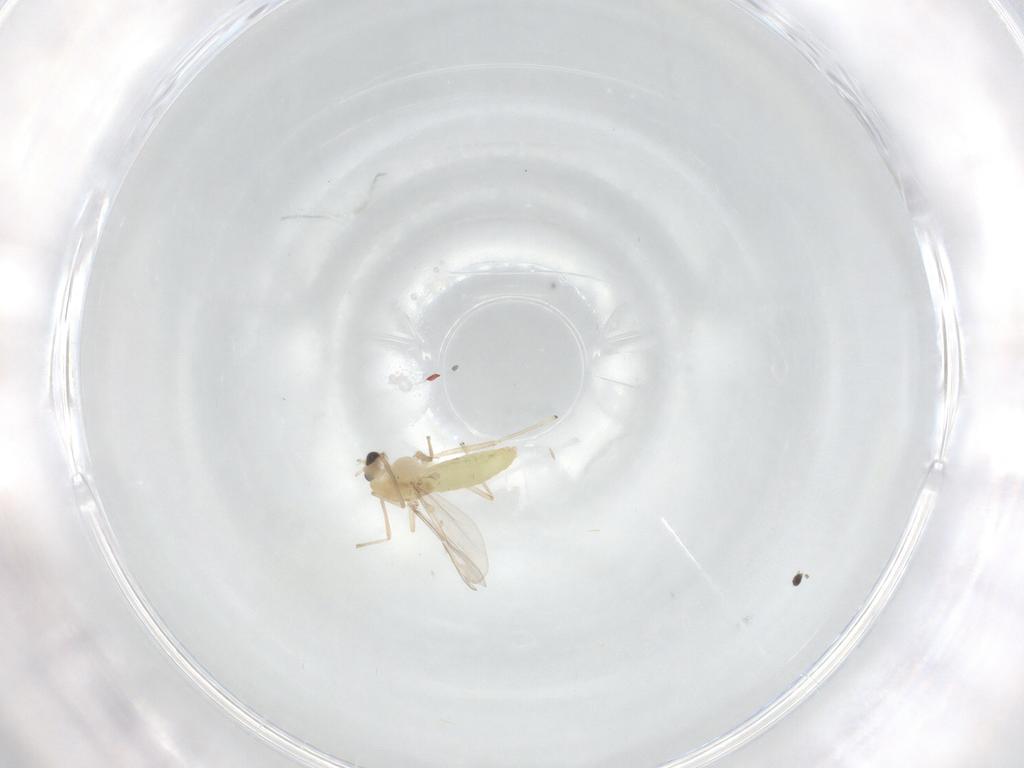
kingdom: Animalia
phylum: Arthropoda
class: Insecta
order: Diptera
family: Chironomidae
